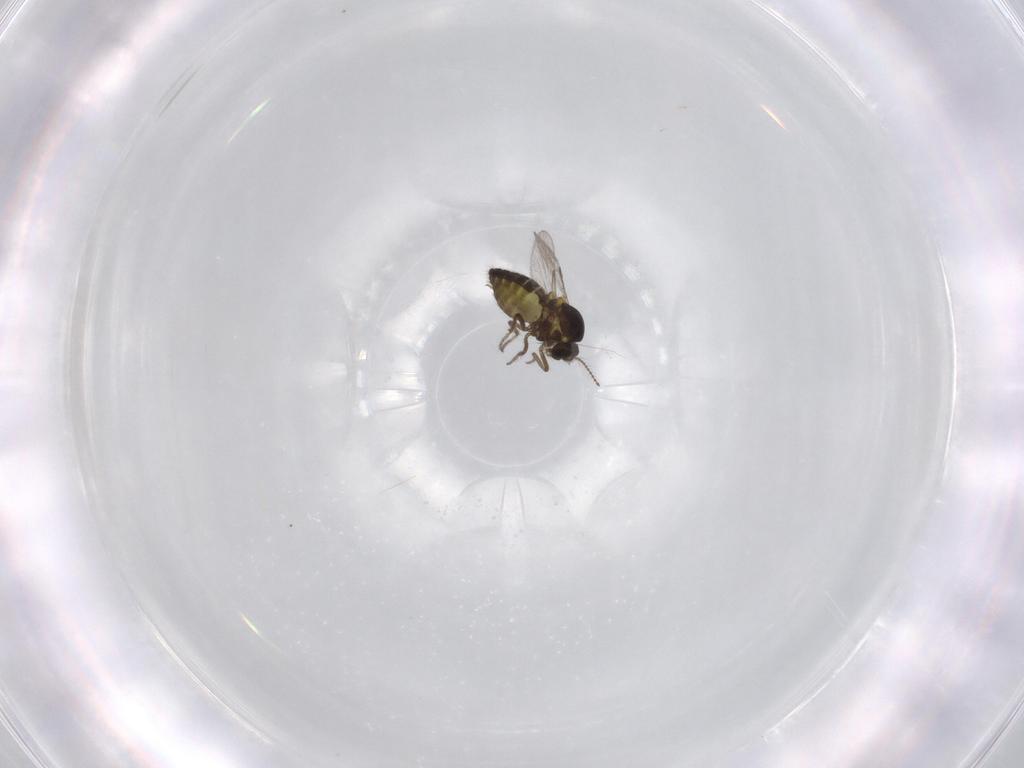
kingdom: Animalia
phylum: Arthropoda
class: Insecta
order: Diptera
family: Ceratopogonidae
